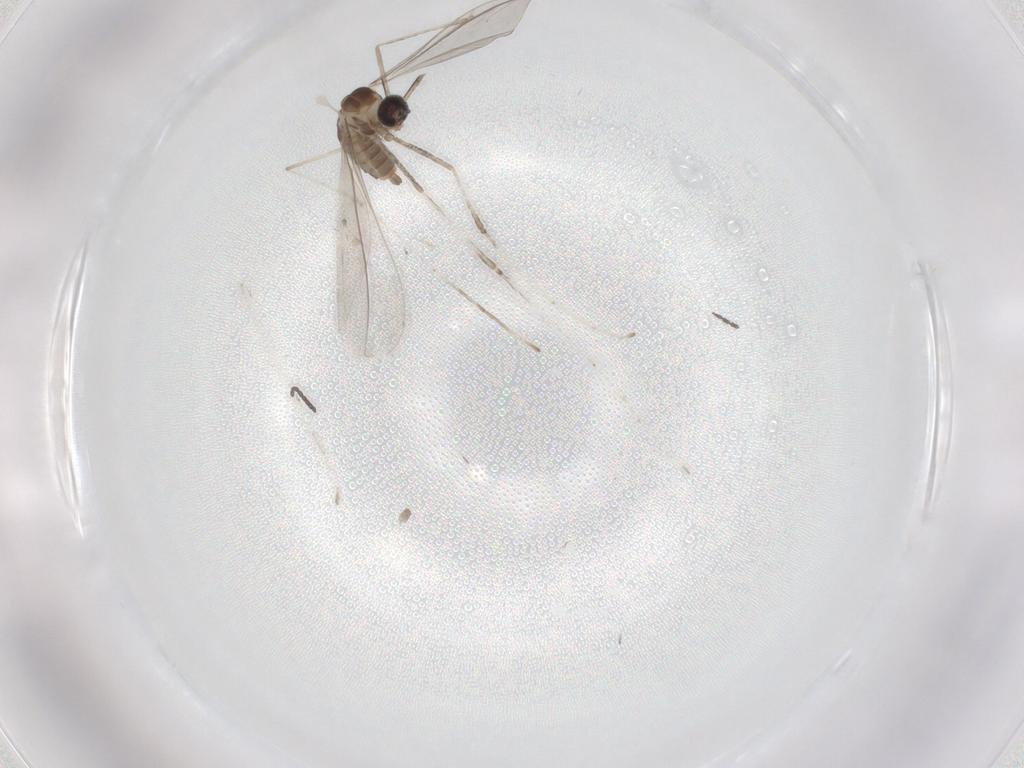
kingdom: Animalia
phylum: Arthropoda
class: Insecta
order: Diptera
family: Cecidomyiidae
